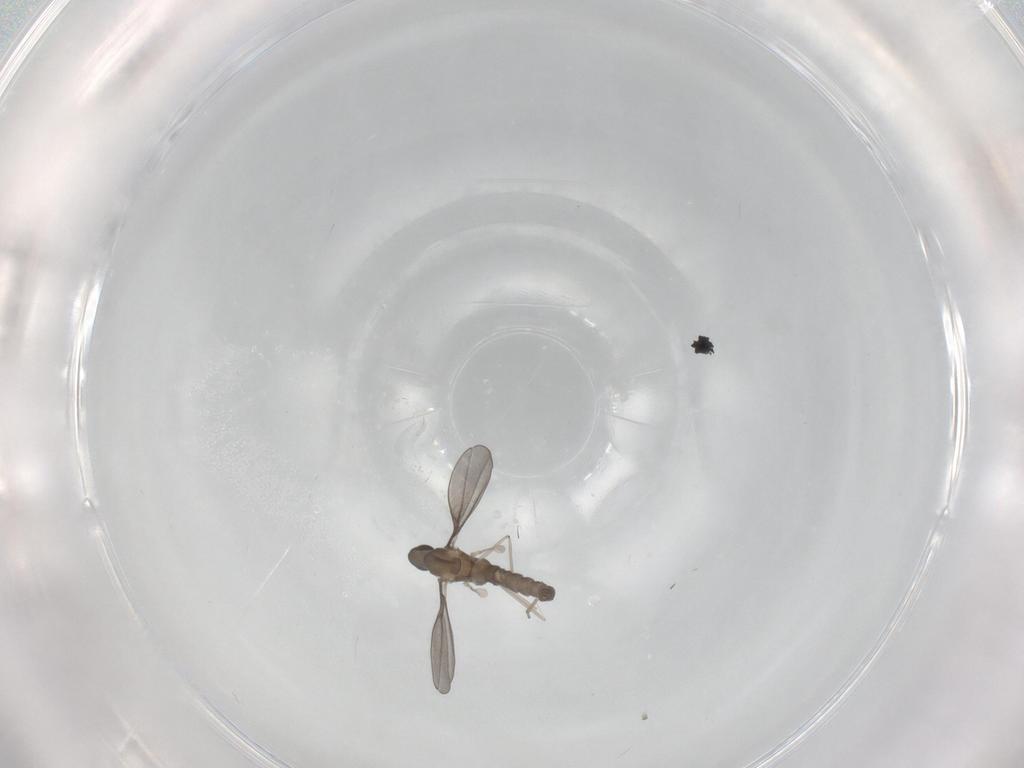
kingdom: Animalia
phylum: Arthropoda
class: Insecta
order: Diptera
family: Cecidomyiidae
